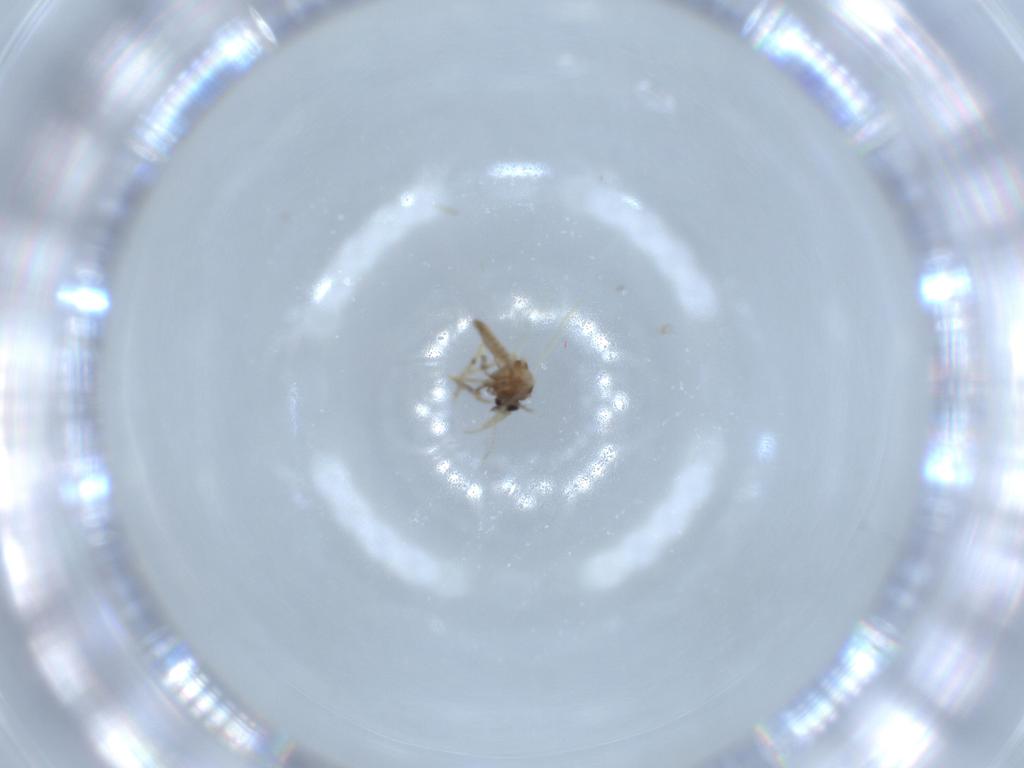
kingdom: Animalia
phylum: Arthropoda
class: Insecta
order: Diptera
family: Ceratopogonidae
